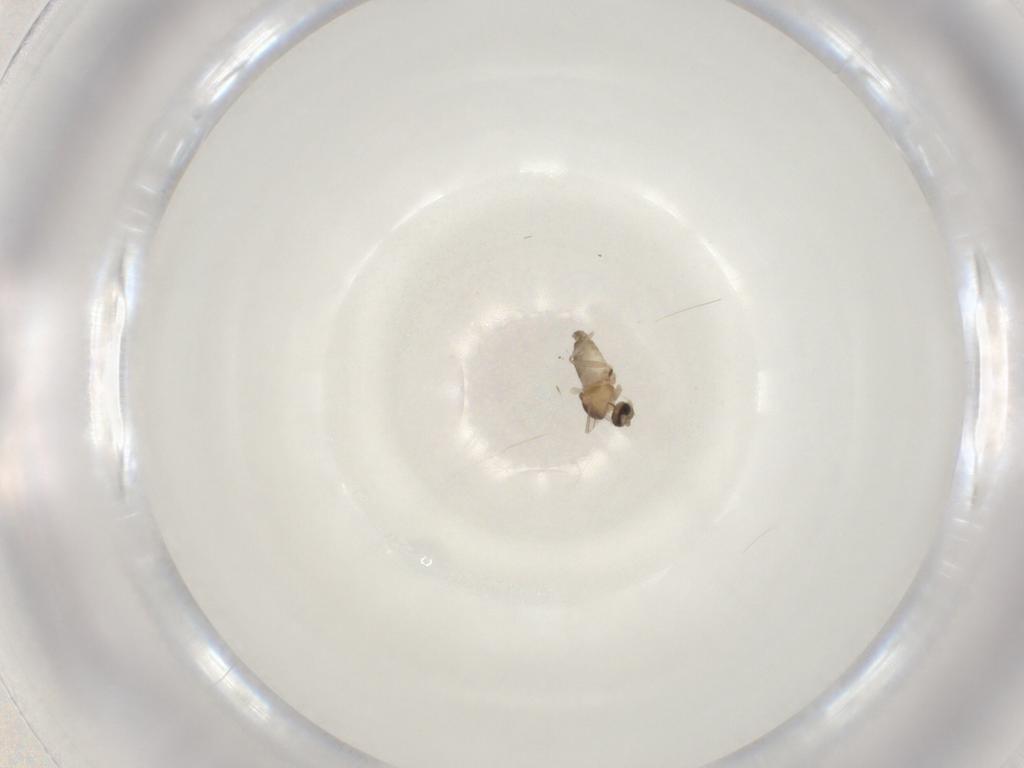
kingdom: Animalia
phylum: Arthropoda
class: Insecta
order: Diptera
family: Cecidomyiidae
